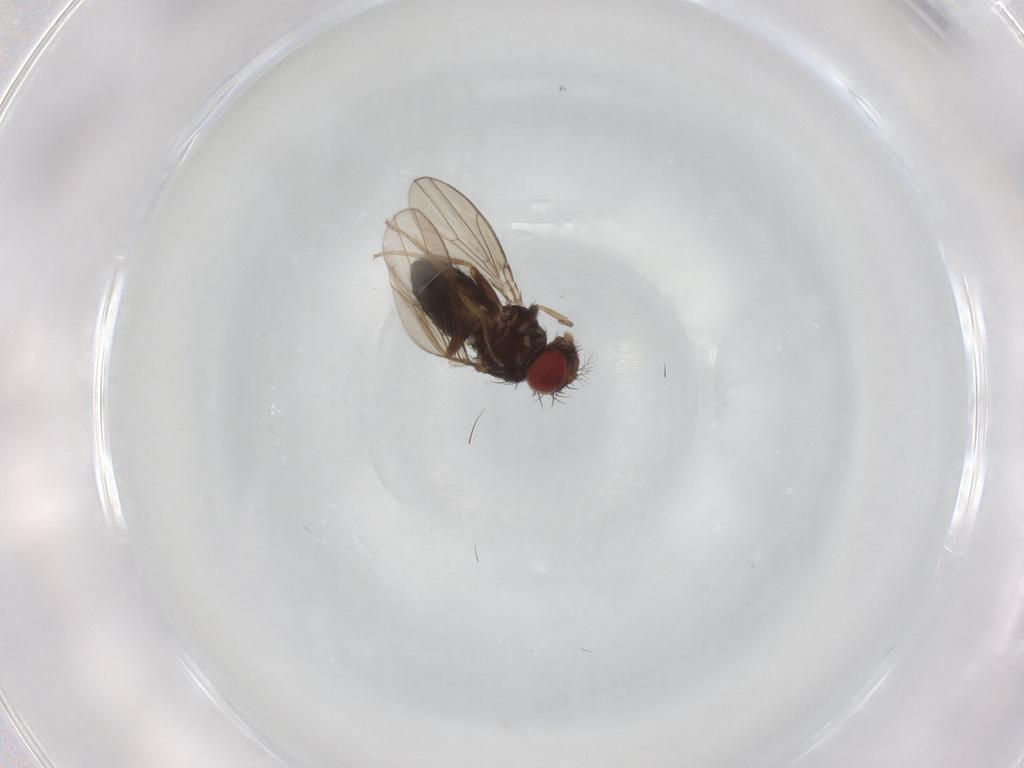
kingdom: Animalia
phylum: Arthropoda
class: Insecta
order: Diptera
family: Drosophilidae
